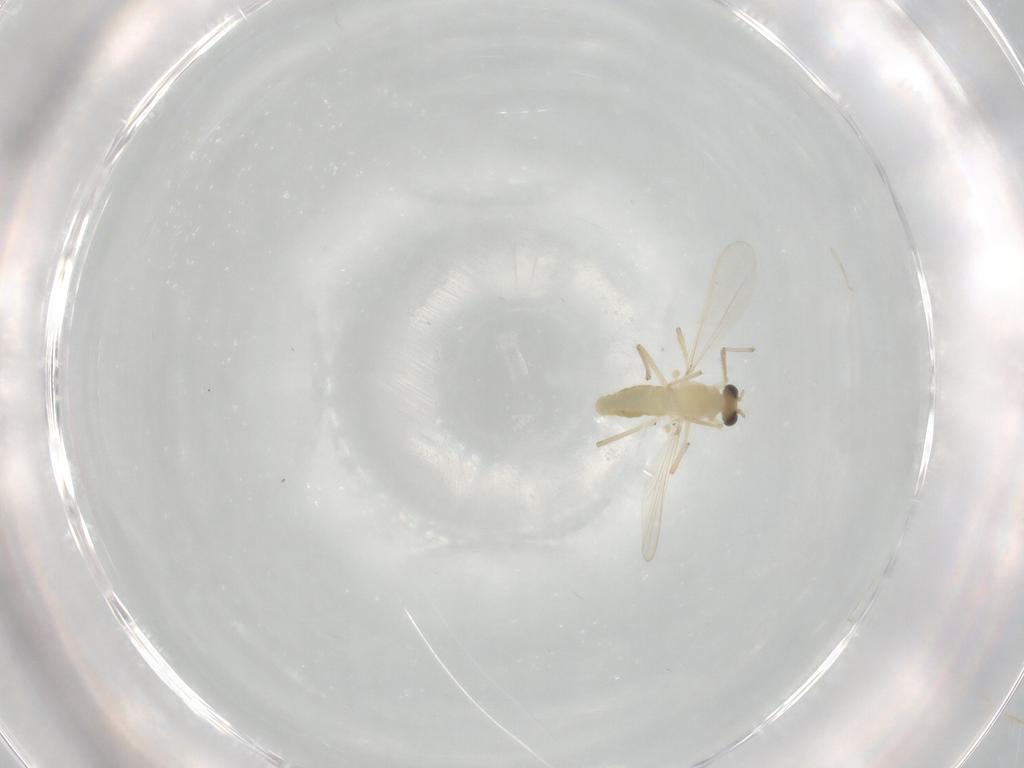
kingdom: Animalia
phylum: Arthropoda
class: Insecta
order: Diptera
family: Chironomidae
